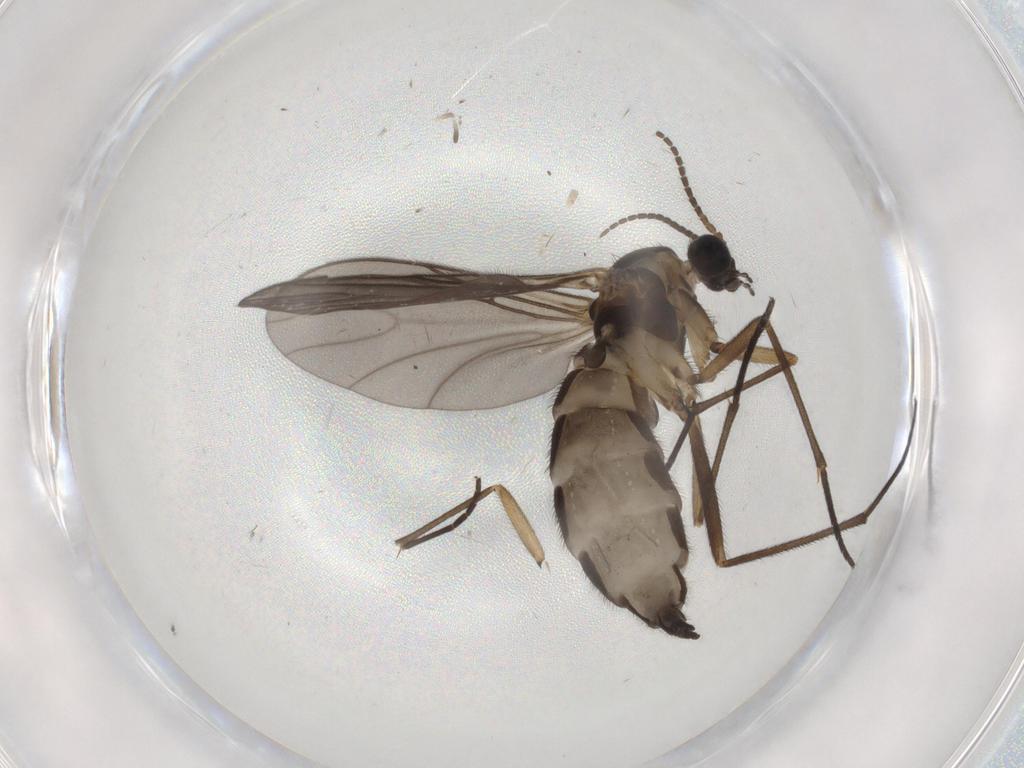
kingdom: Animalia
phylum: Arthropoda
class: Insecta
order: Diptera
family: Sciaridae
